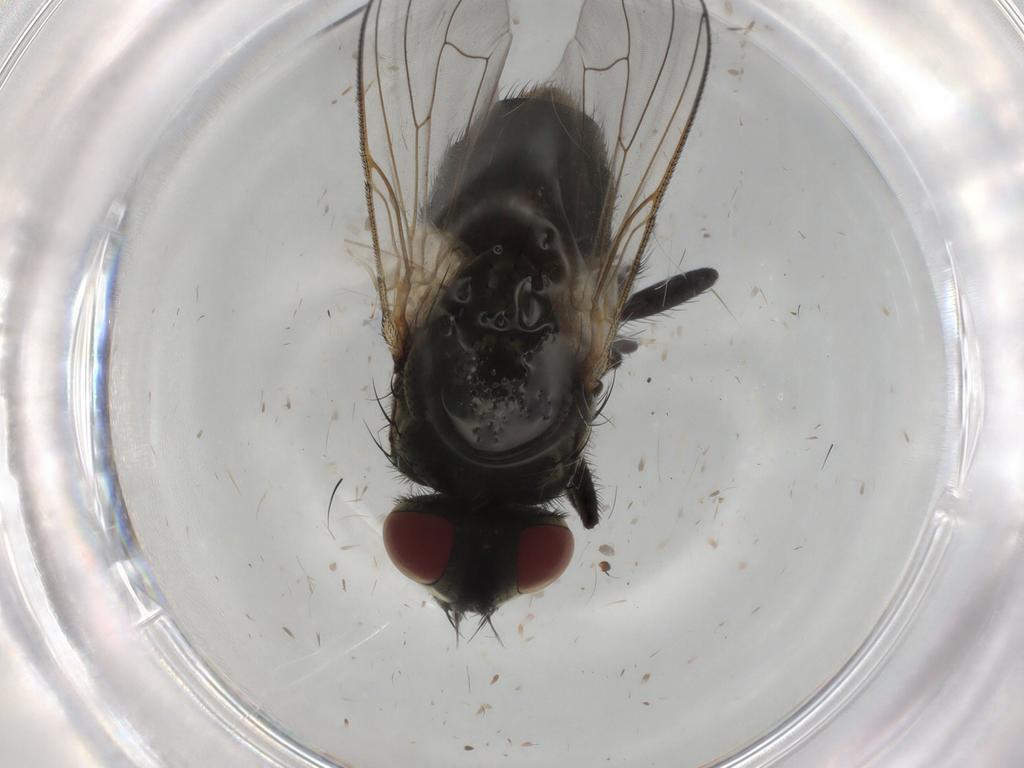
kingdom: Animalia
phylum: Arthropoda
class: Insecta
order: Diptera
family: Muscidae
